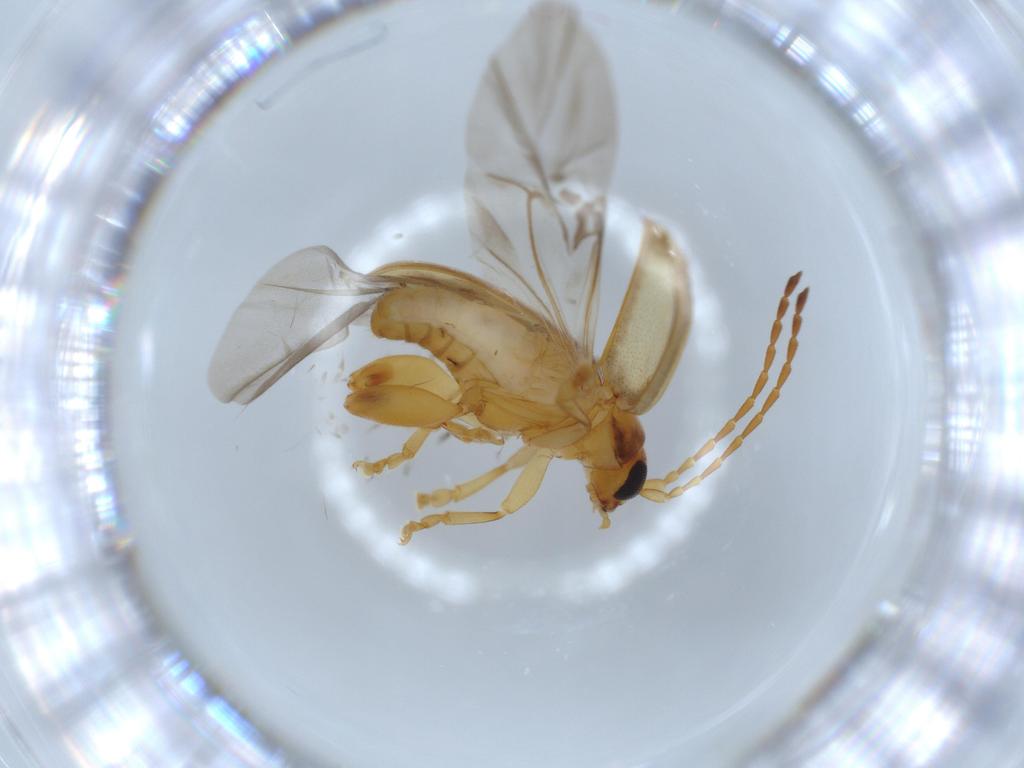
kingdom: Animalia
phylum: Arthropoda
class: Insecta
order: Coleoptera
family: Chrysomelidae
